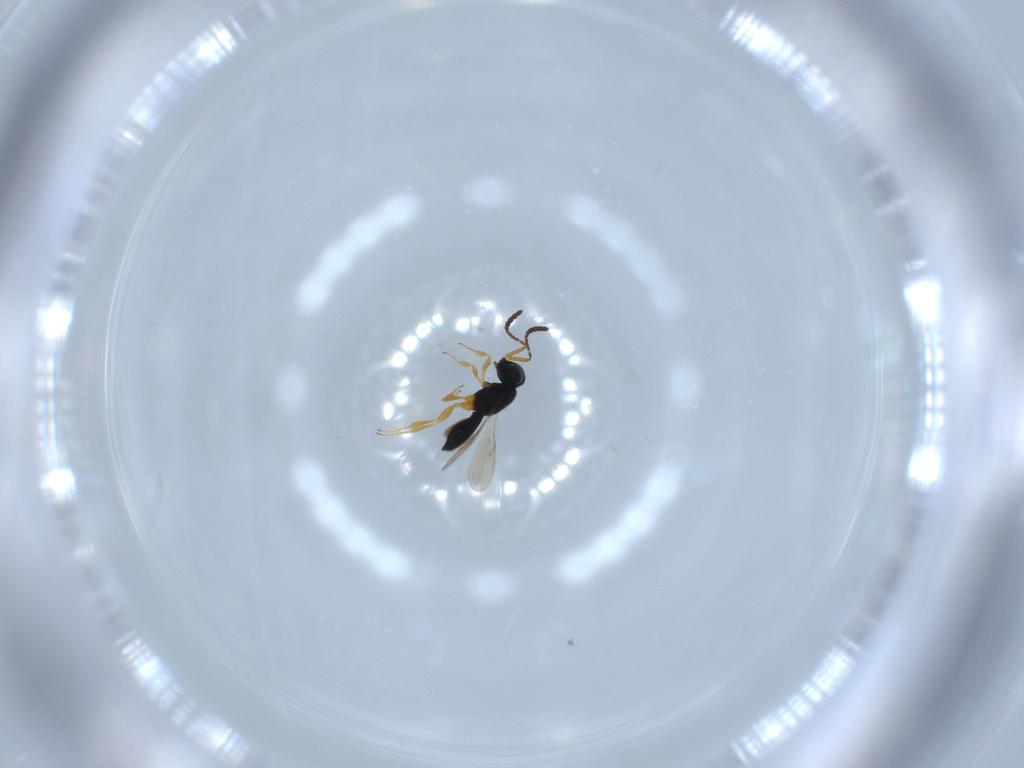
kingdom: Animalia
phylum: Arthropoda
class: Insecta
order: Hymenoptera
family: Scelionidae
